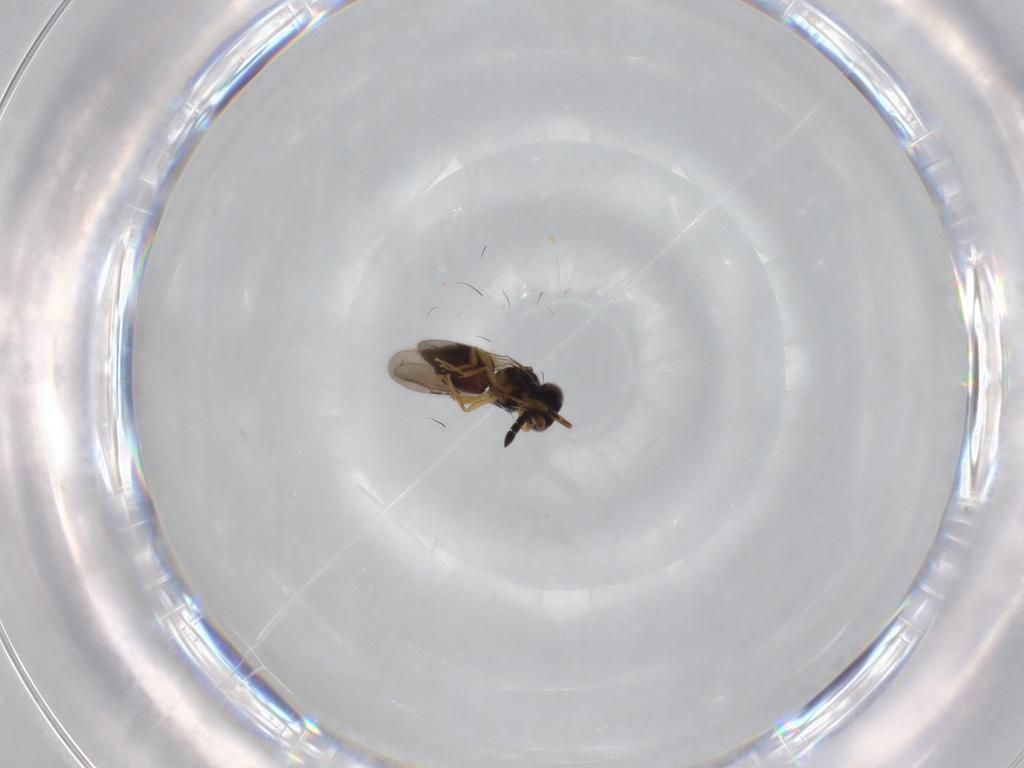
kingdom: Animalia
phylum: Arthropoda
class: Insecta
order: Hymenoptera
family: Ceraphronidae
